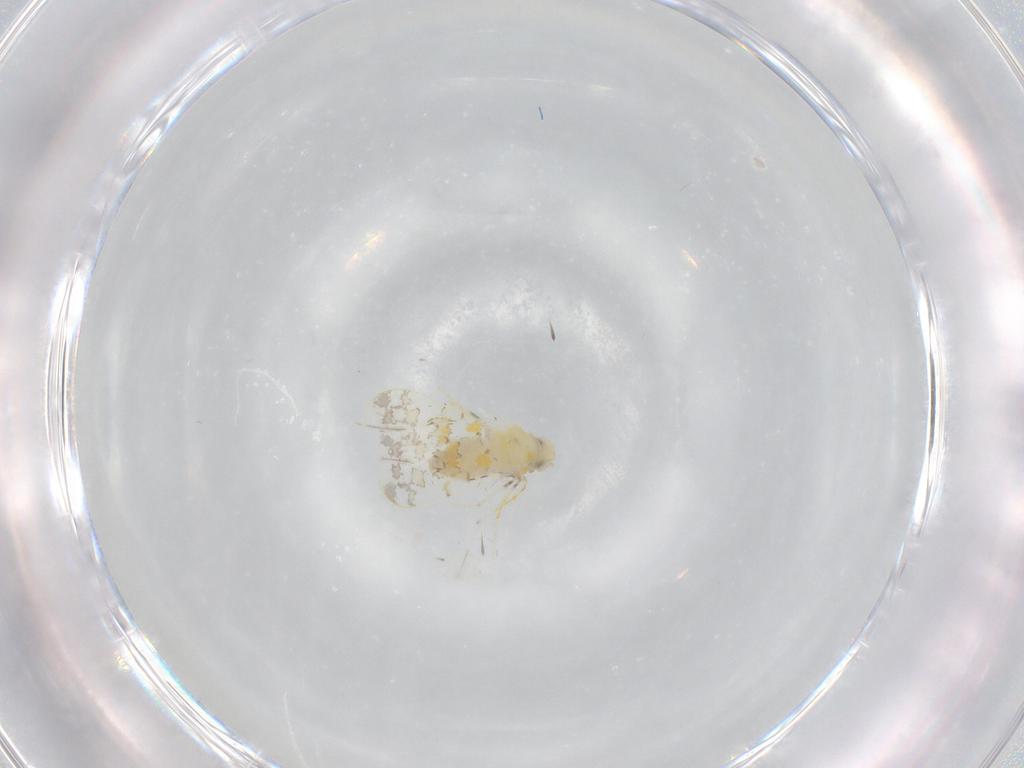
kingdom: Animalia
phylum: Arthropoda
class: Insecta
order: Hemiptera
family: Aleyrodidae
